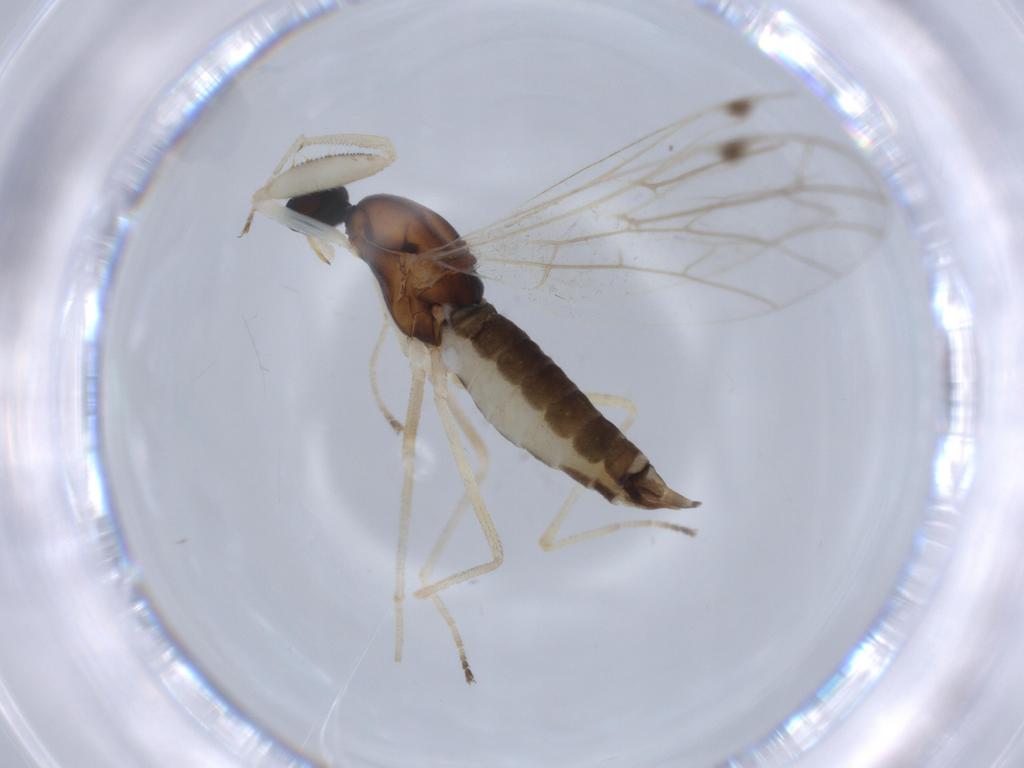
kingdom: Animalia
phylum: Arthropoda
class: Insecta
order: Diptera
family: Empididae
